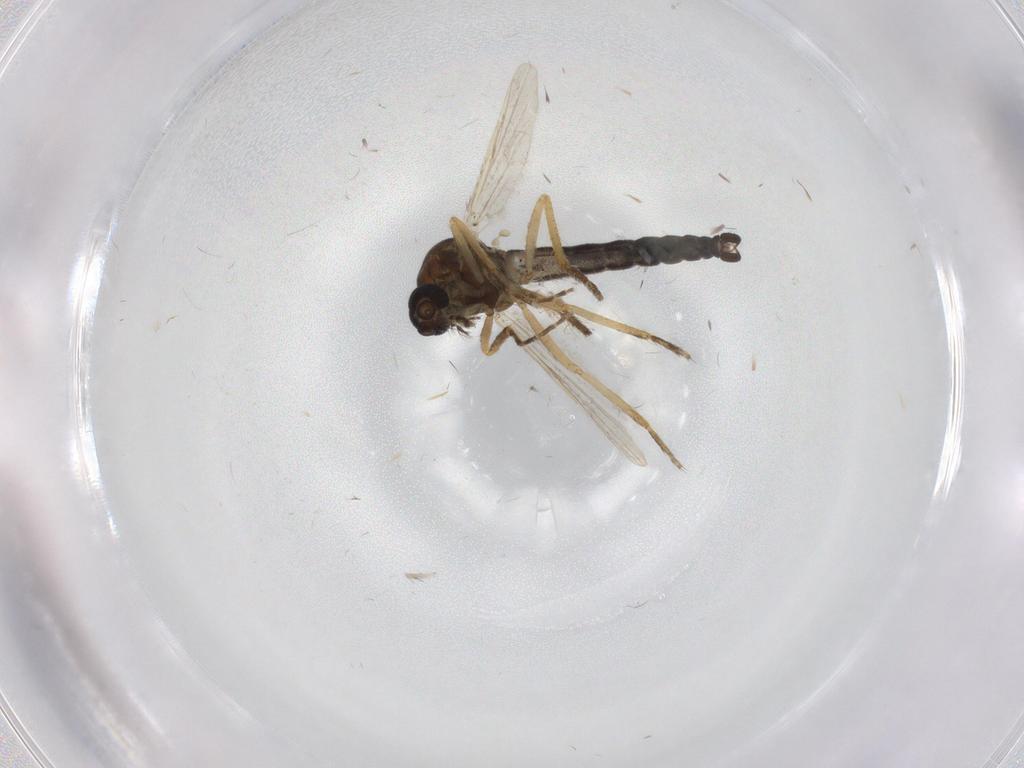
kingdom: Animalia
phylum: Arthropoda
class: Insecta
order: Diptera
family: Ceratopogonidae
